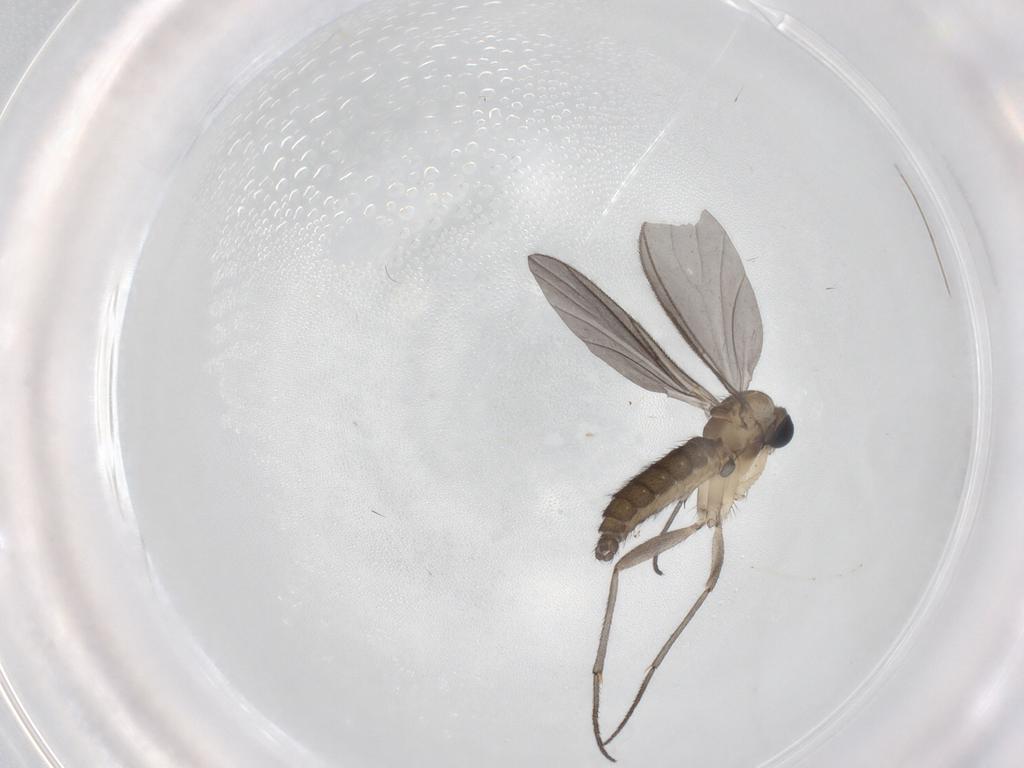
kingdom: Animalia
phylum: Arthropoda
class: Insecta
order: Diptera
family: Sciaridae
